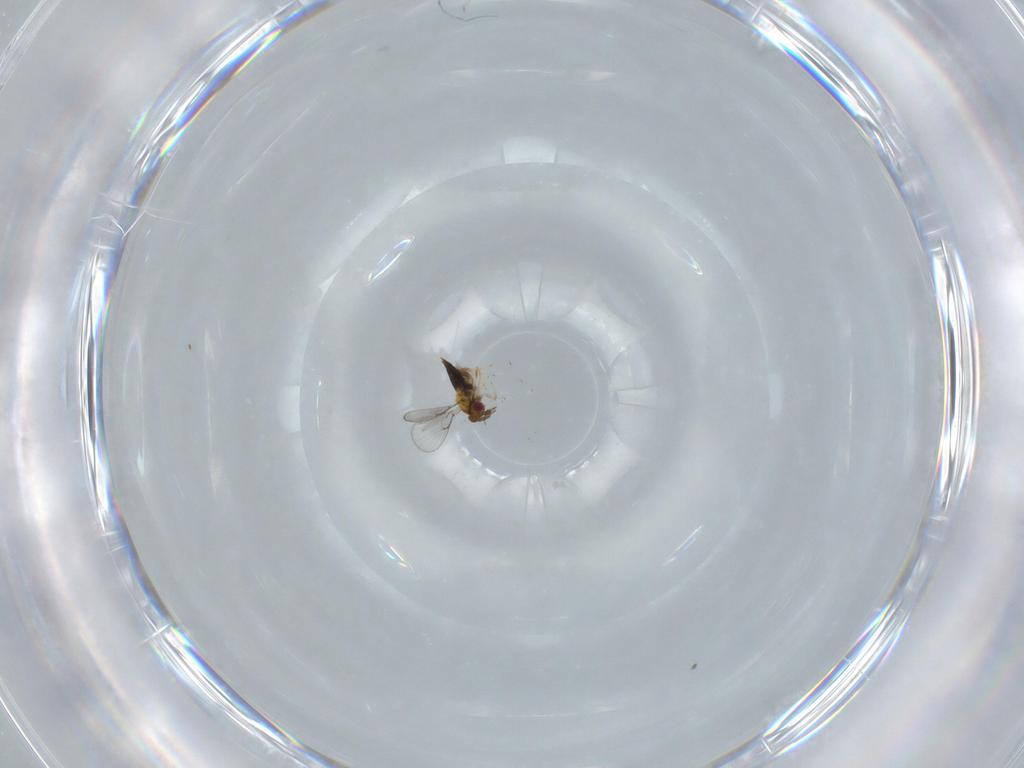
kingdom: Animalia
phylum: Arthropoda
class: Insecta
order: Hymenoptera
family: Trichogrammatidae
